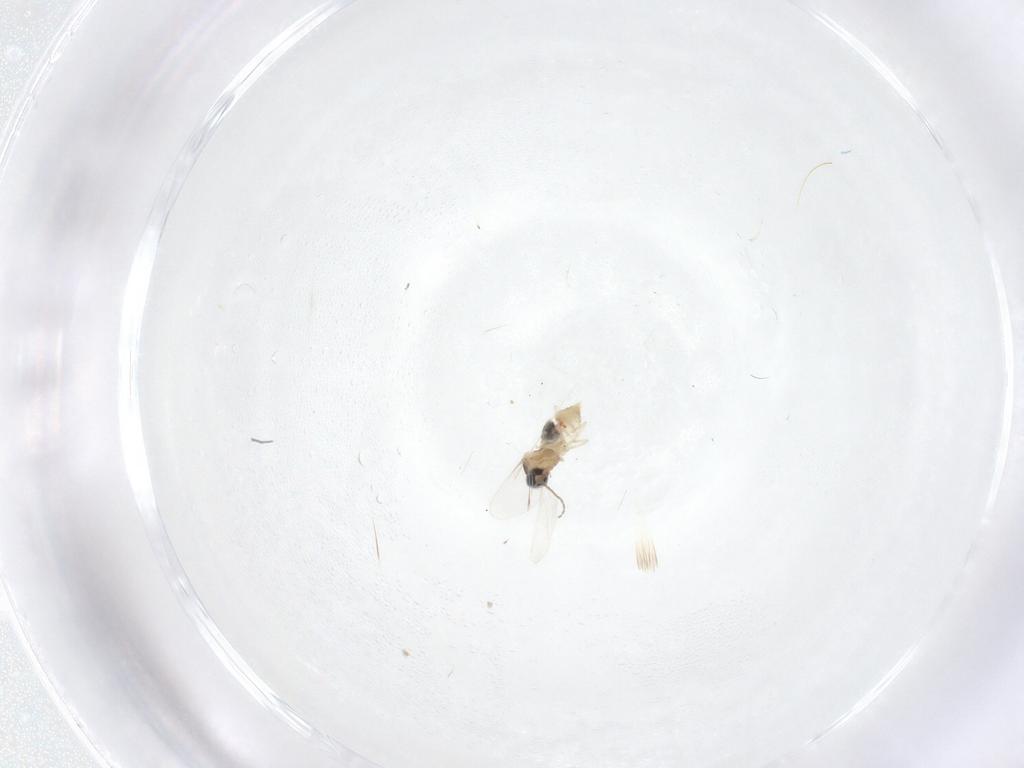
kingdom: Animalia
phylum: Arthropoda
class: Insecta
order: Diptera
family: Cecidomyiidae
